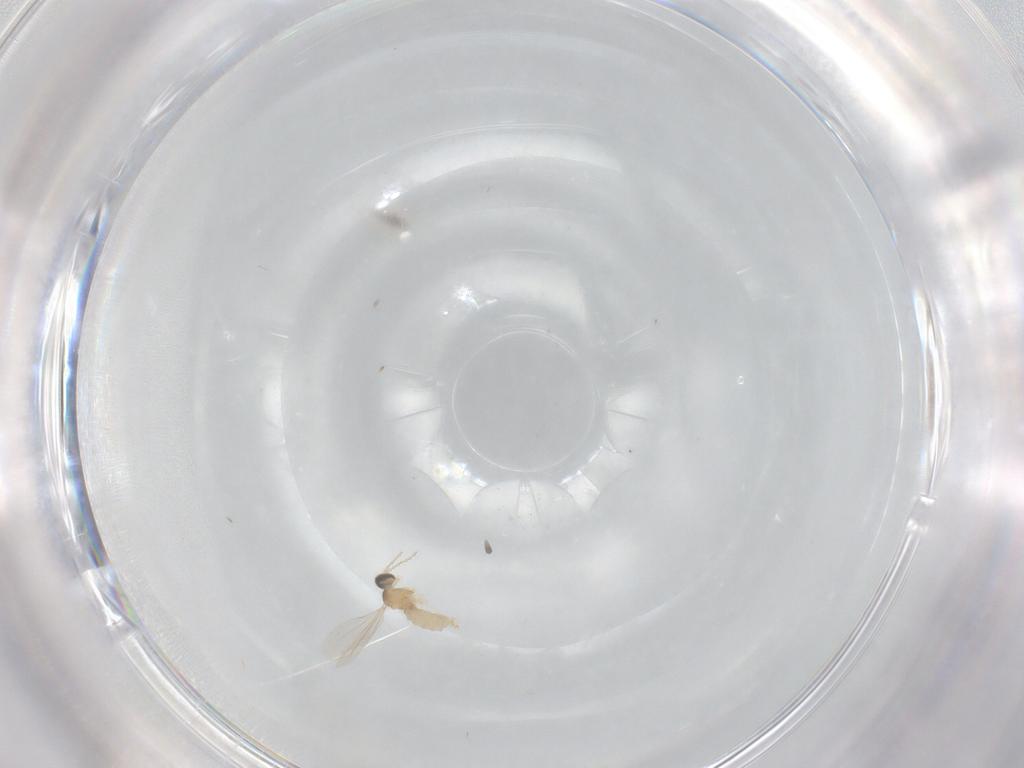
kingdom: Animalia
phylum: Arthropoda
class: Insecta
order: Diptera
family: Cecidomyiidae
